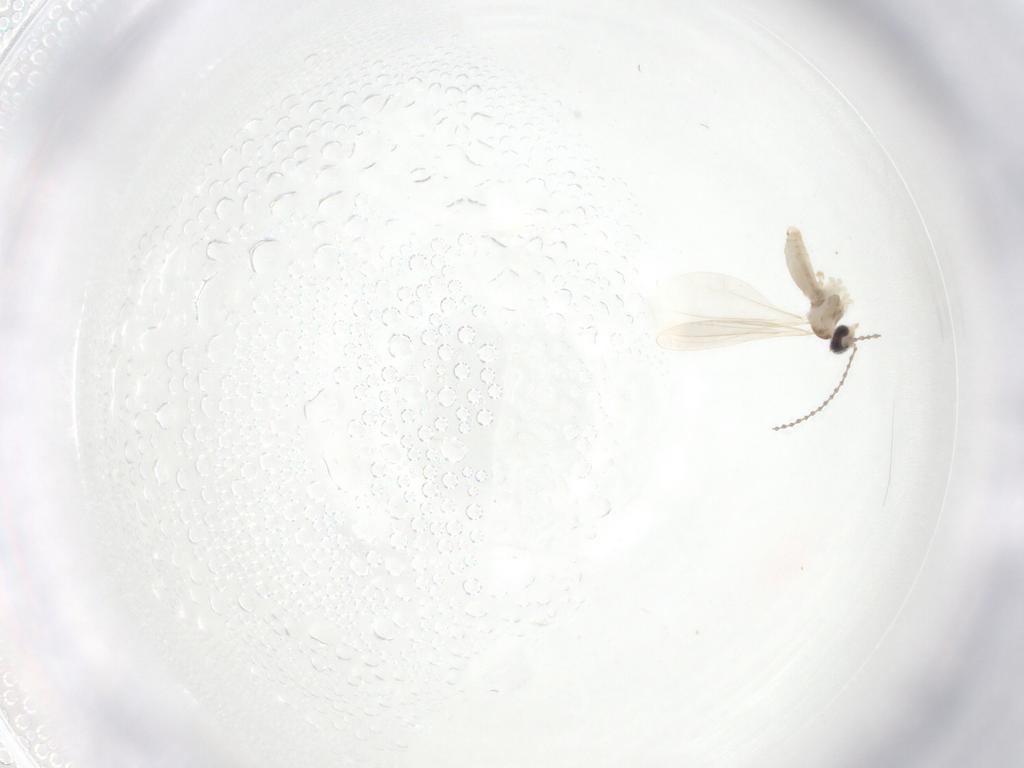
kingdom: Animalia
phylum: Arthropoda
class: Insecta
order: Diptera
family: Cecidomyiidae
